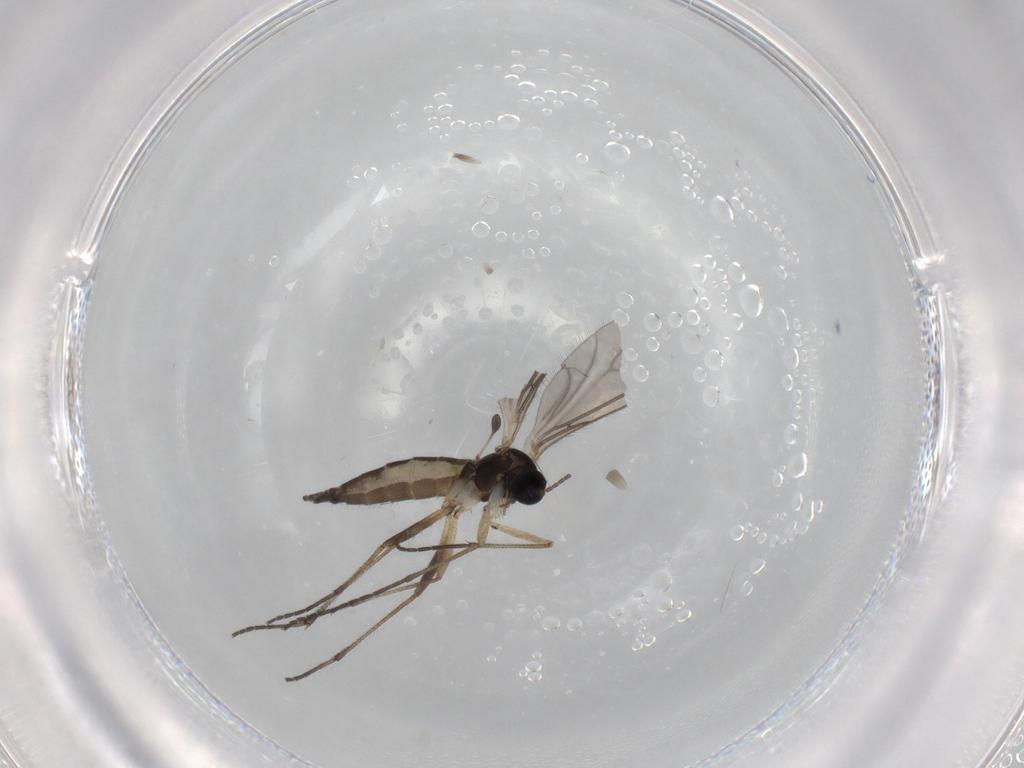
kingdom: Animalia
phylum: Arthropoda
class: Insecta
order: Diptera
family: Sciaridae
